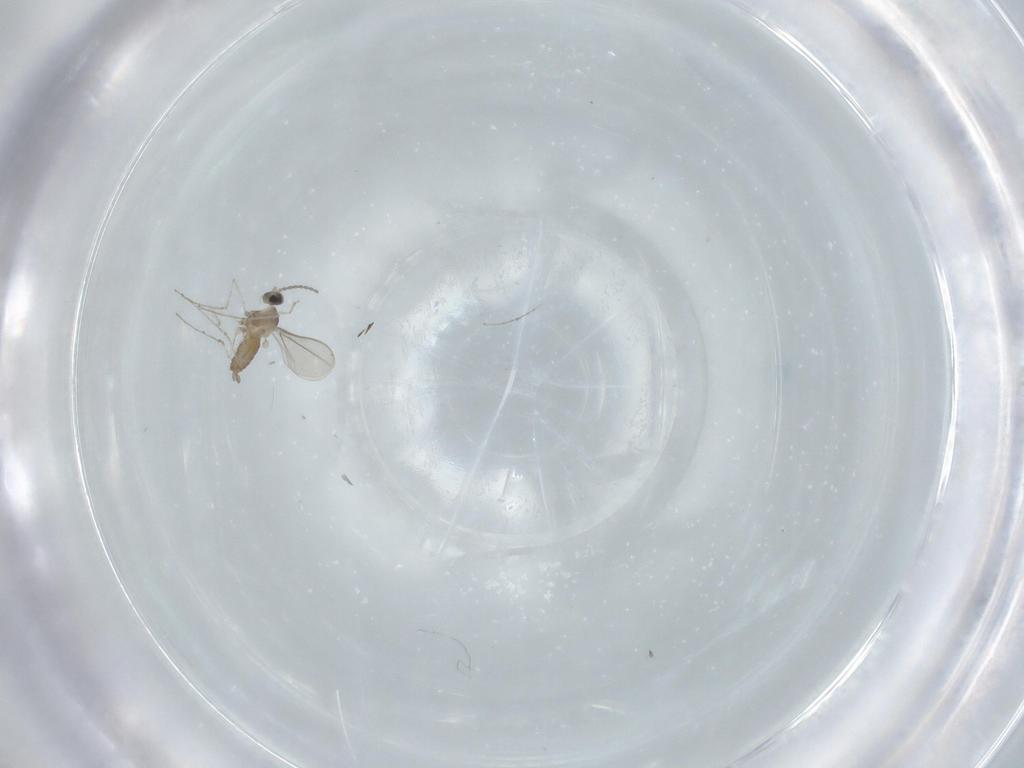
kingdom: Animalia
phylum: Arthropoda
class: Insecta
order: Diptera
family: Cecidomyiidae
